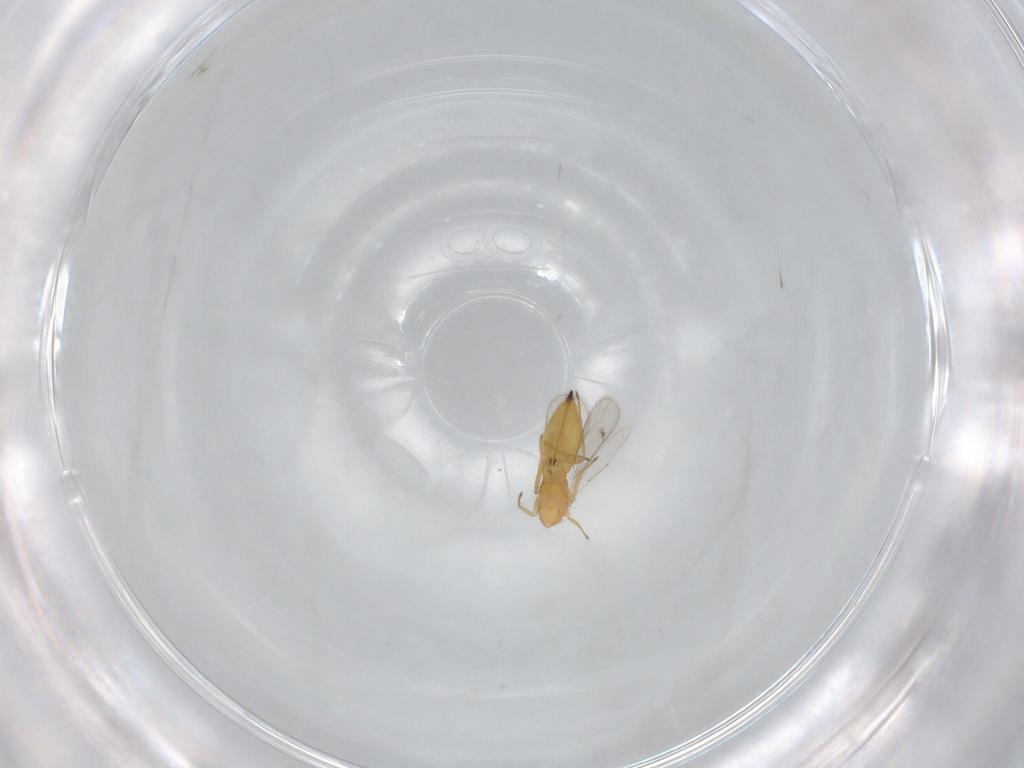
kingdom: Animalia
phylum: Arthropoda
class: Insecta
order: Hymenoptera
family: Eulophidae
